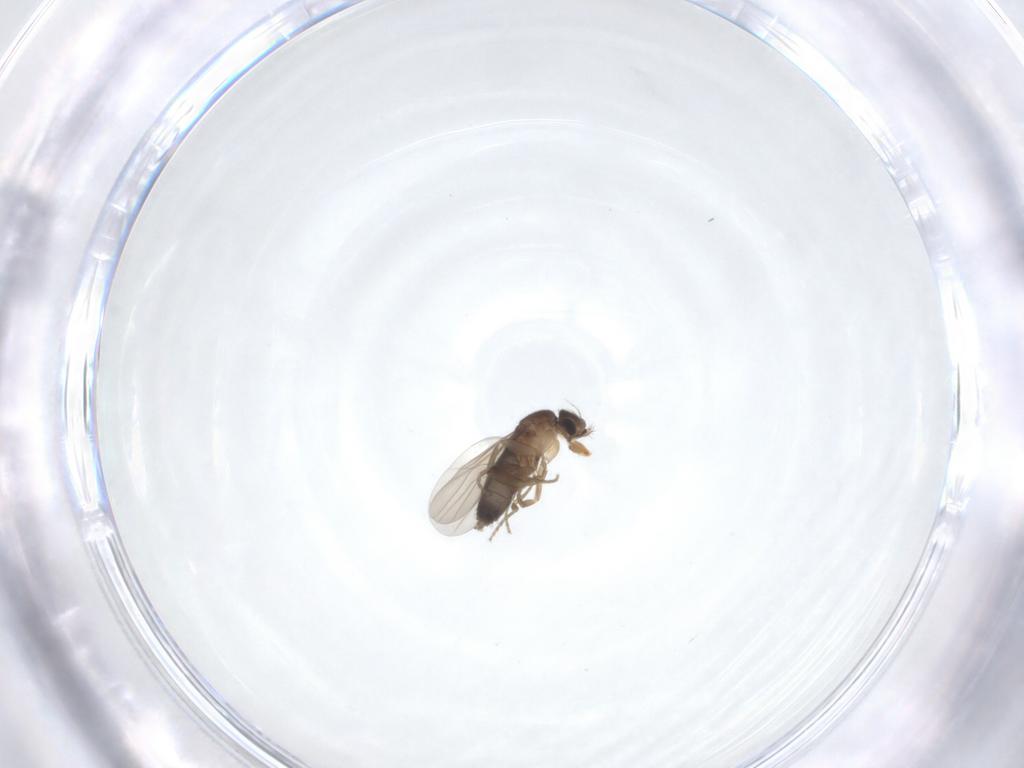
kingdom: Animalia
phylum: Arthropoda
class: Insecta
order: Diptera
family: Phoridae
